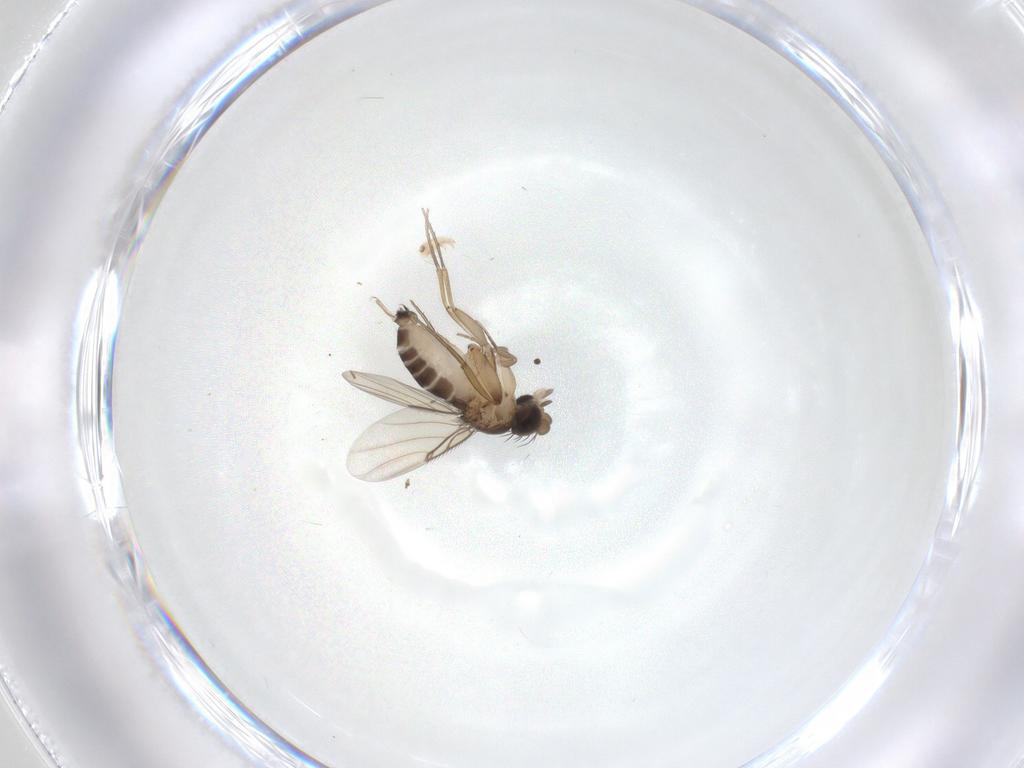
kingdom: Animalia
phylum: Arthropoda
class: Insecta
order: Diptera
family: Phoridae
